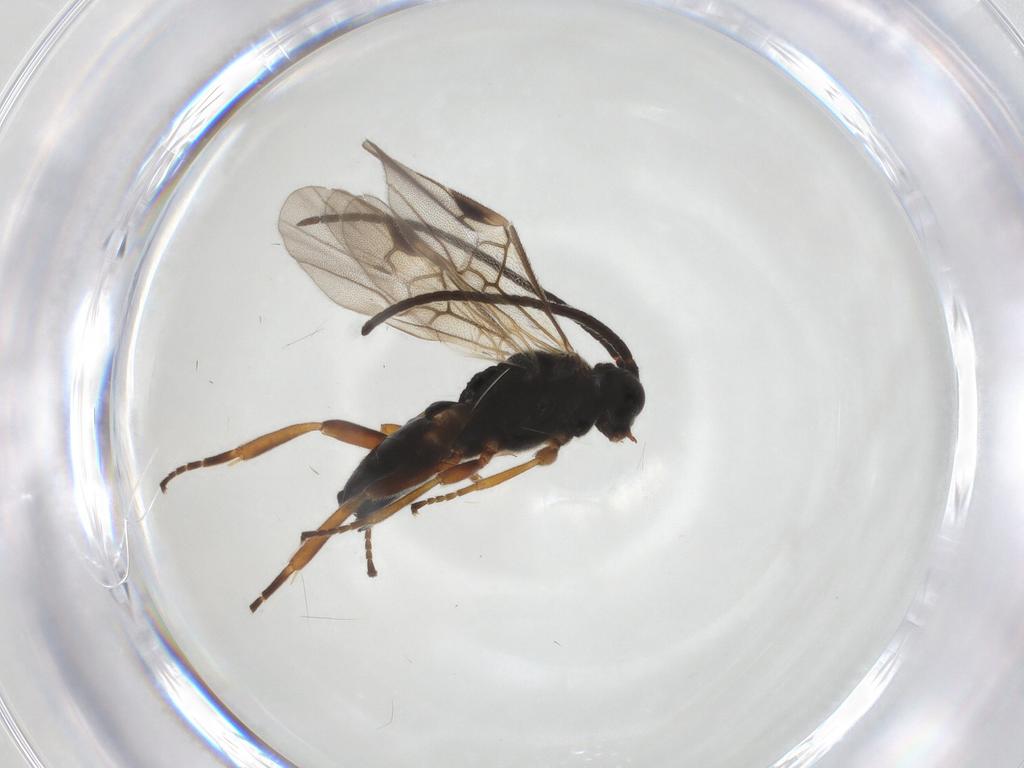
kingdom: Animalia
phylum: Arthropoda
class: Insecta
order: Hymenoptera
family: Braconidae
